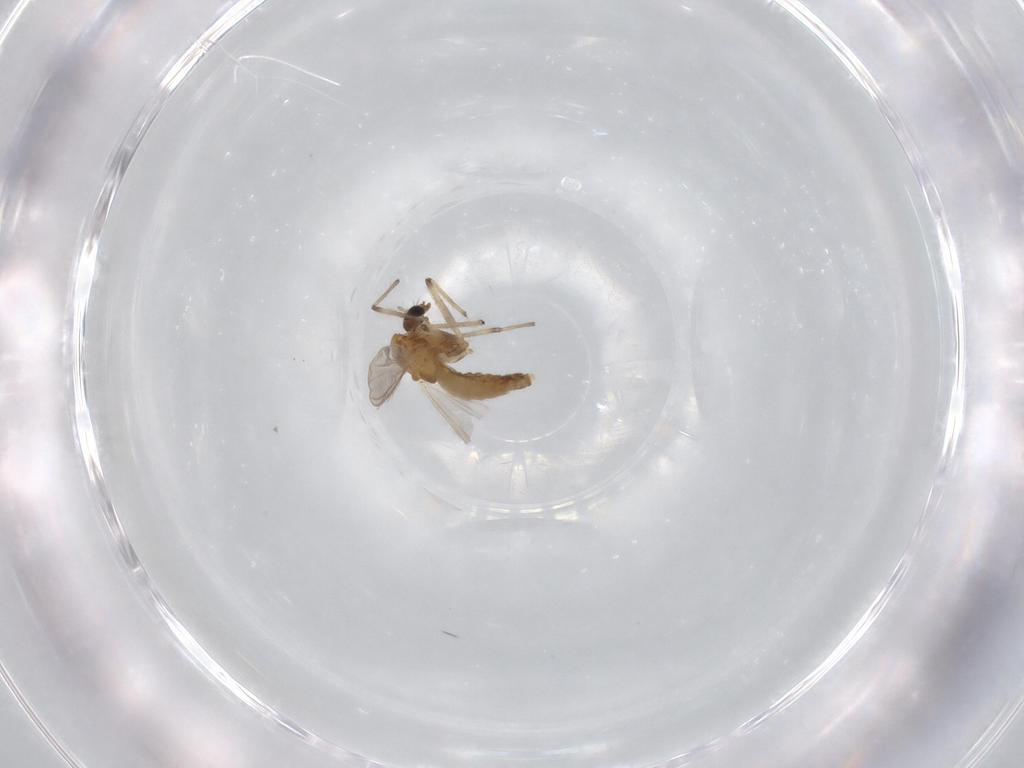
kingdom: Animalia
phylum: Arthropoda
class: Insecta
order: Diptera
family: Chironomidae
